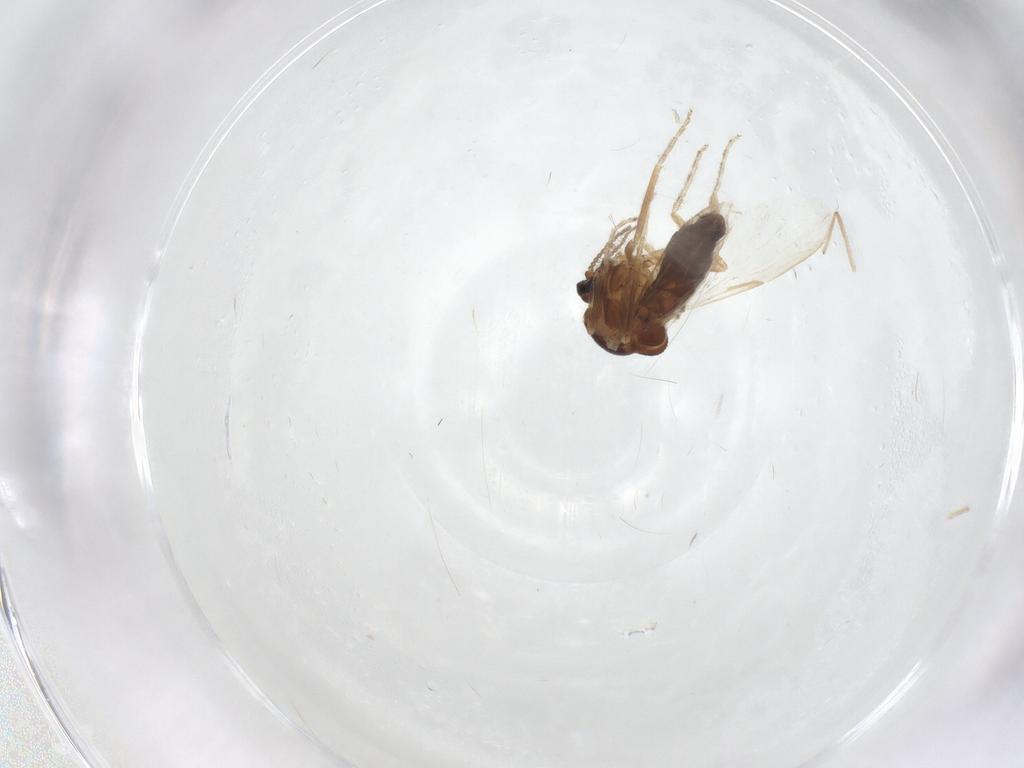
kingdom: Animalia
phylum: Arthropoda
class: Insecta
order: Diptera
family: Ceratopogonidae
